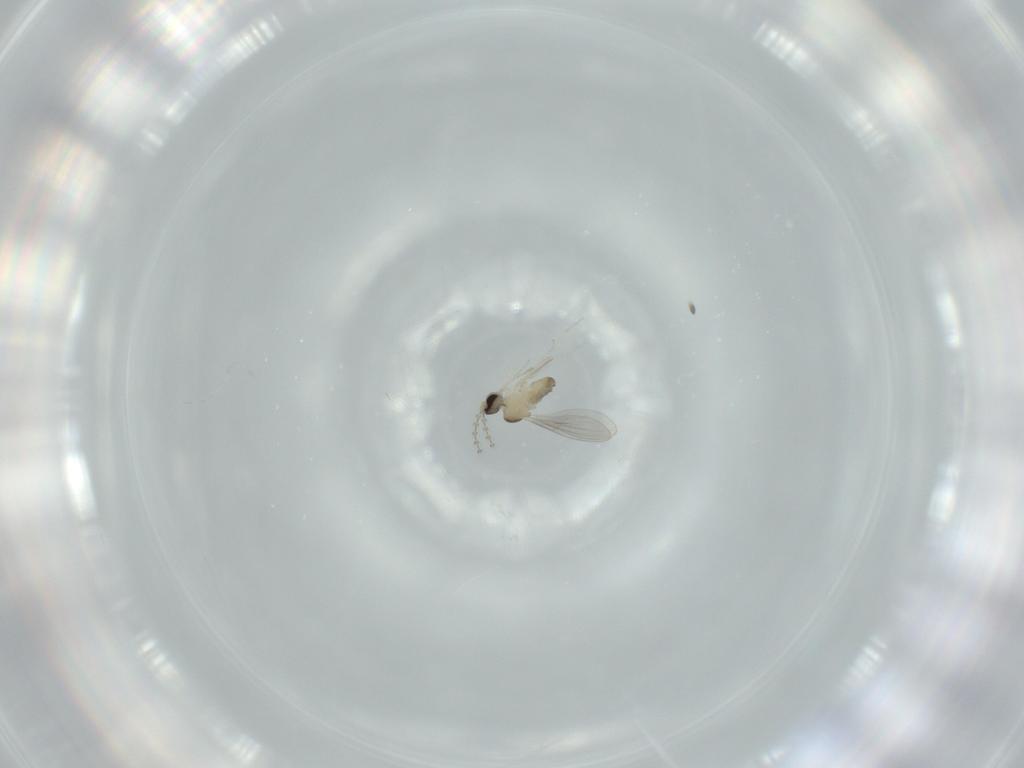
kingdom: Animalia
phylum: Arthropoda
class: Insecta
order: Diptera
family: Cecidomyiidae
